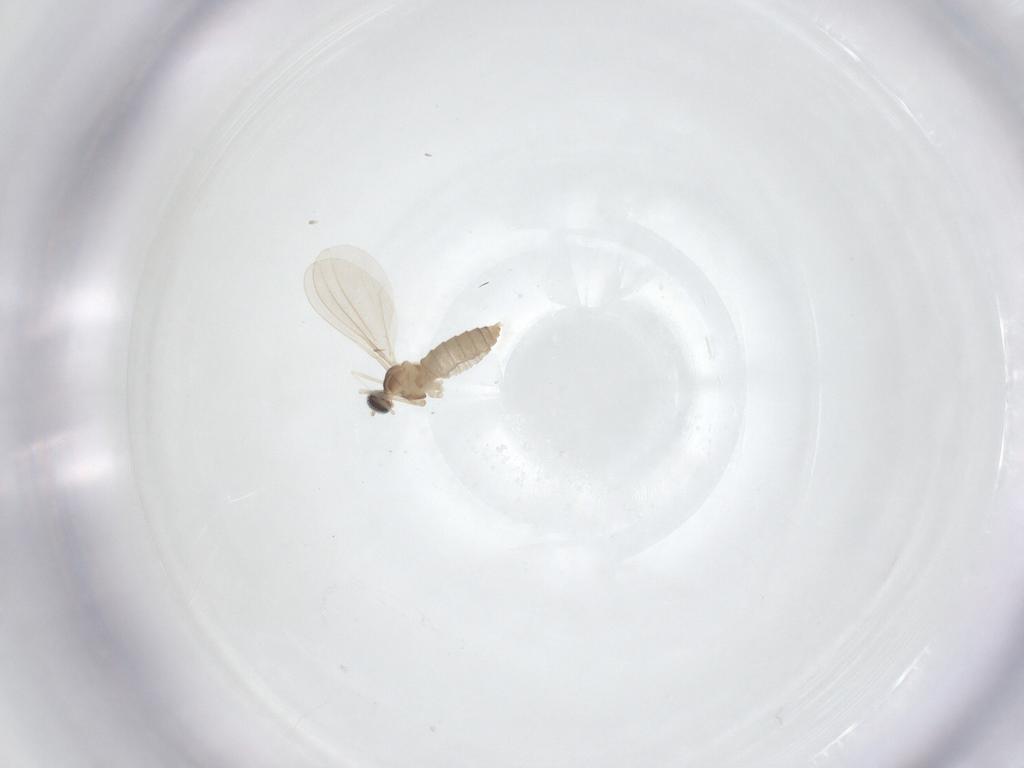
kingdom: Animalia
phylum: Arthropoda
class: Insecta
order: Diptera
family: Cecidomyiidae
